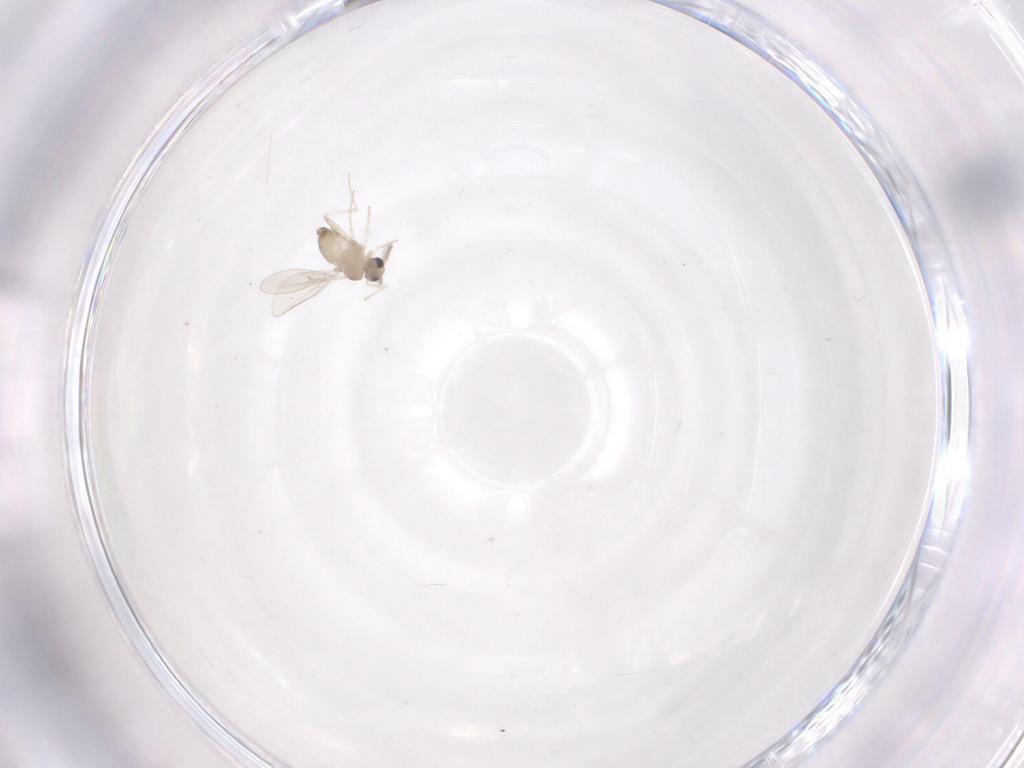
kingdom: Animalia
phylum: Arthropoda
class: Insecta
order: Diptera
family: Cecidomyiidae
